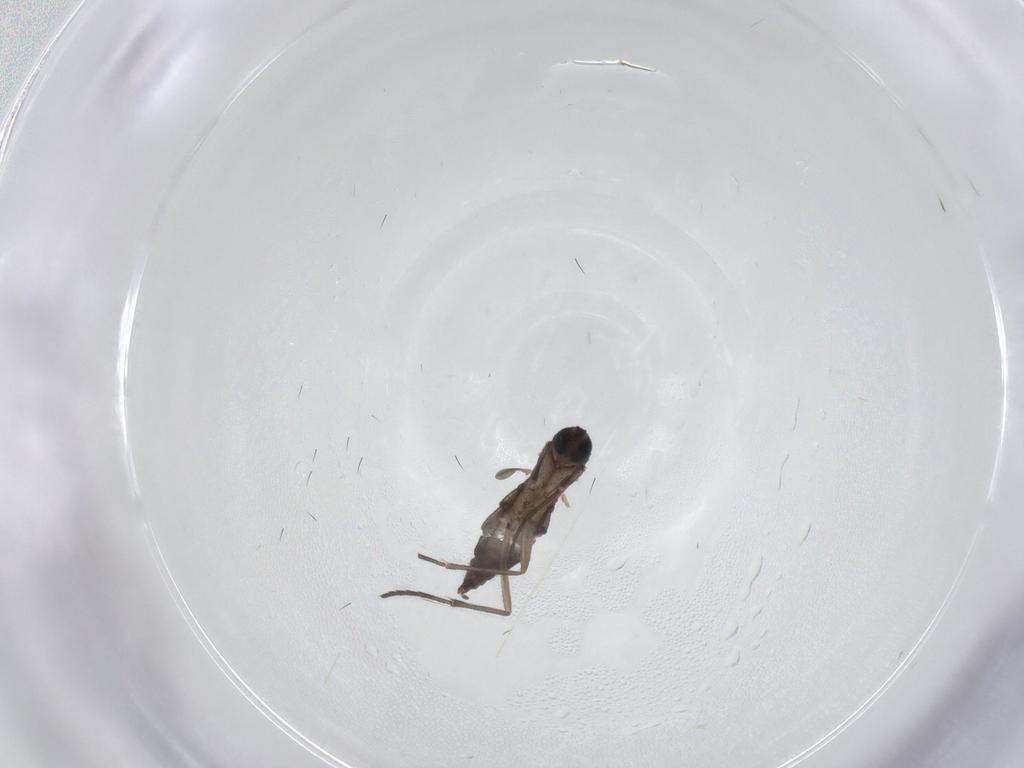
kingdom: Animalia
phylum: Arthropoda
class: Insecta
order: Diptera
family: Sciaridae
